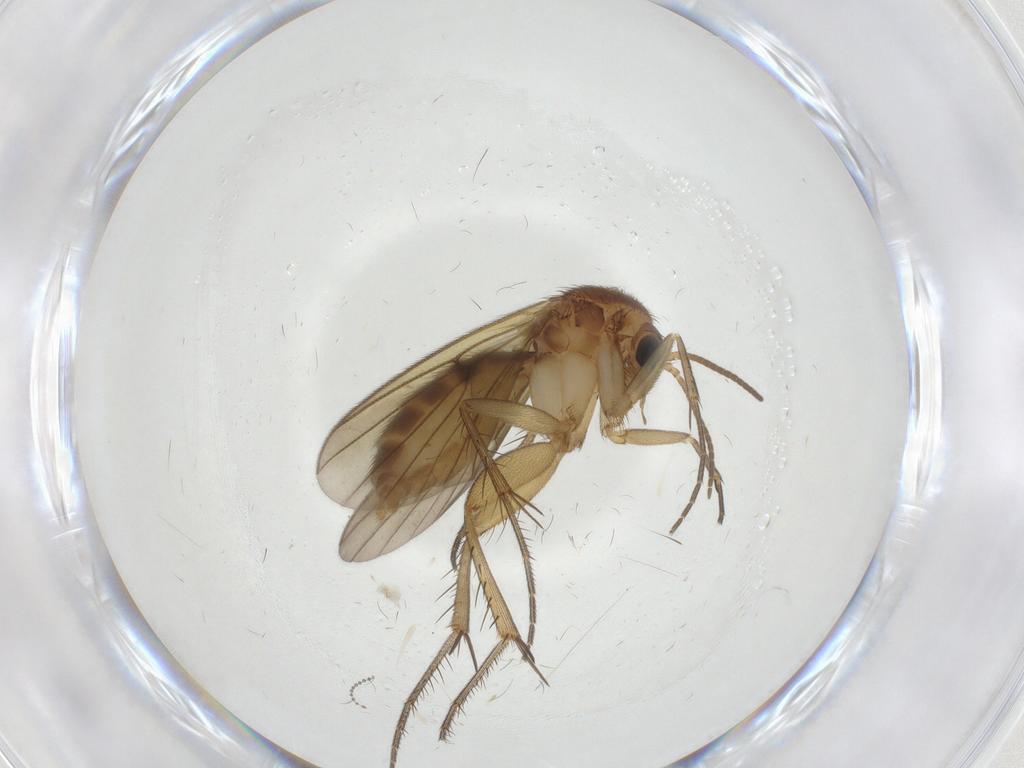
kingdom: Animalia
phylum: Arthropoda
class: Insecta
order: Diptera
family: Mycetophilidae
